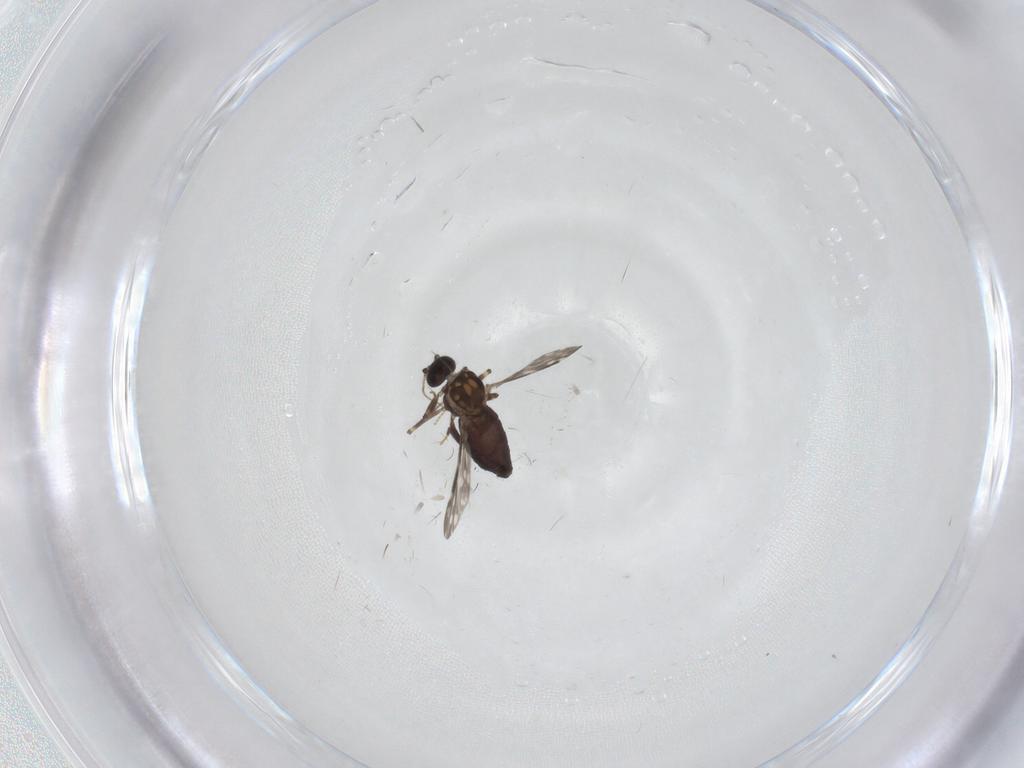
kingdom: Animalia
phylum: Arthropoda
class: Insecta
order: Diptera
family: Ceratopogonidae
